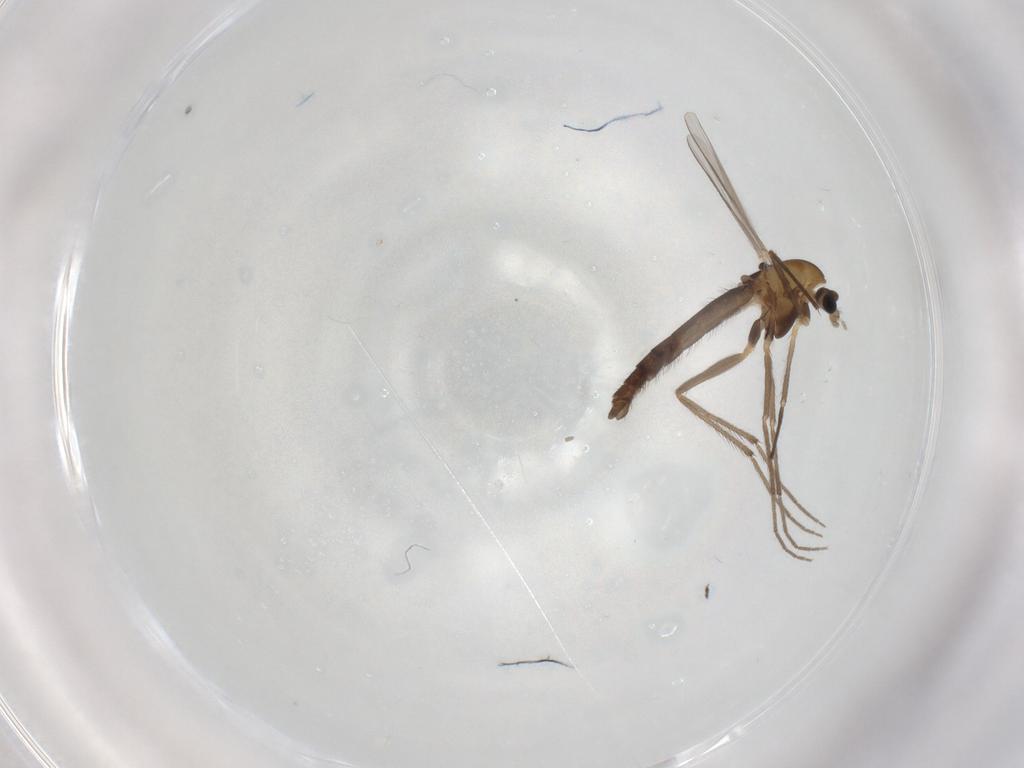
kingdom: Animalia
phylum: Arthropoda
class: Insecta
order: Diptera
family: Chironomidae
